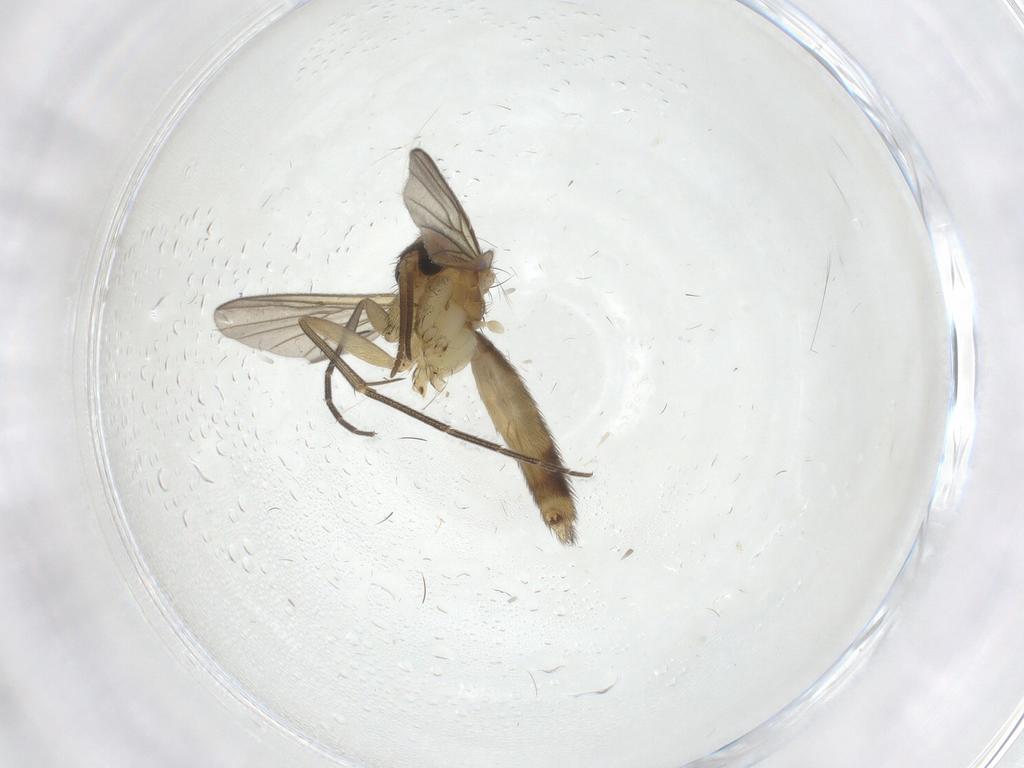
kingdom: Animalia
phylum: Arthropoda
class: Insecta
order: Diptera
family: Mycetophilidae
